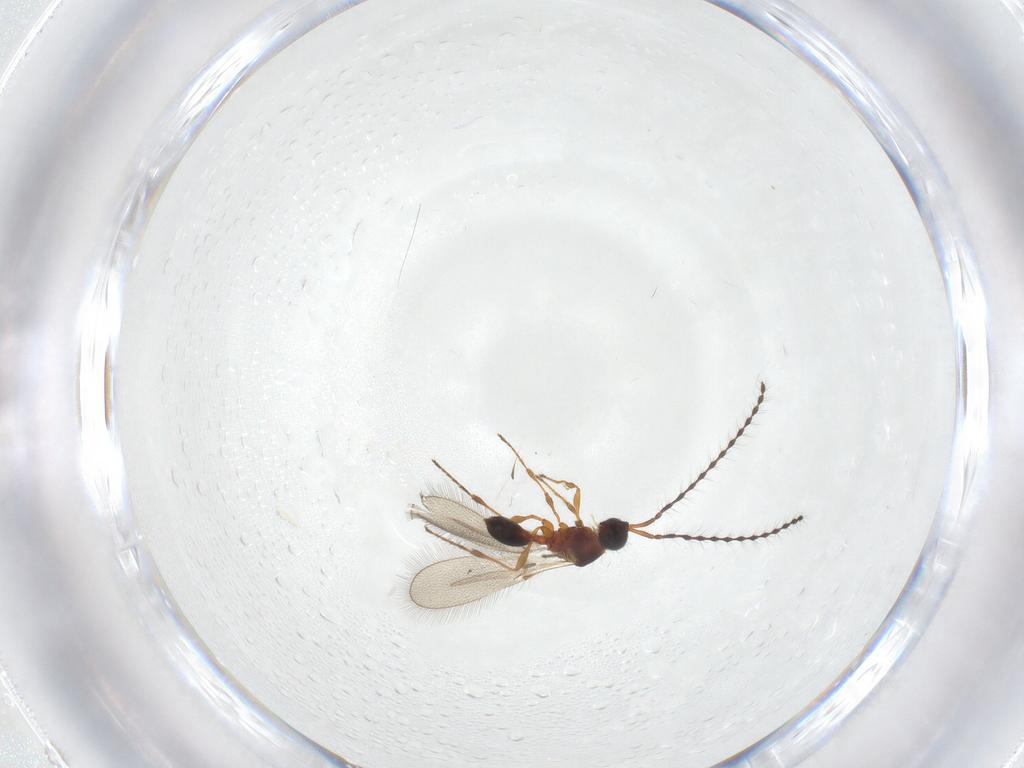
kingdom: Animalia
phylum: Arthropoda
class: Insecta
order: Hymenoptera
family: Diapriidae
